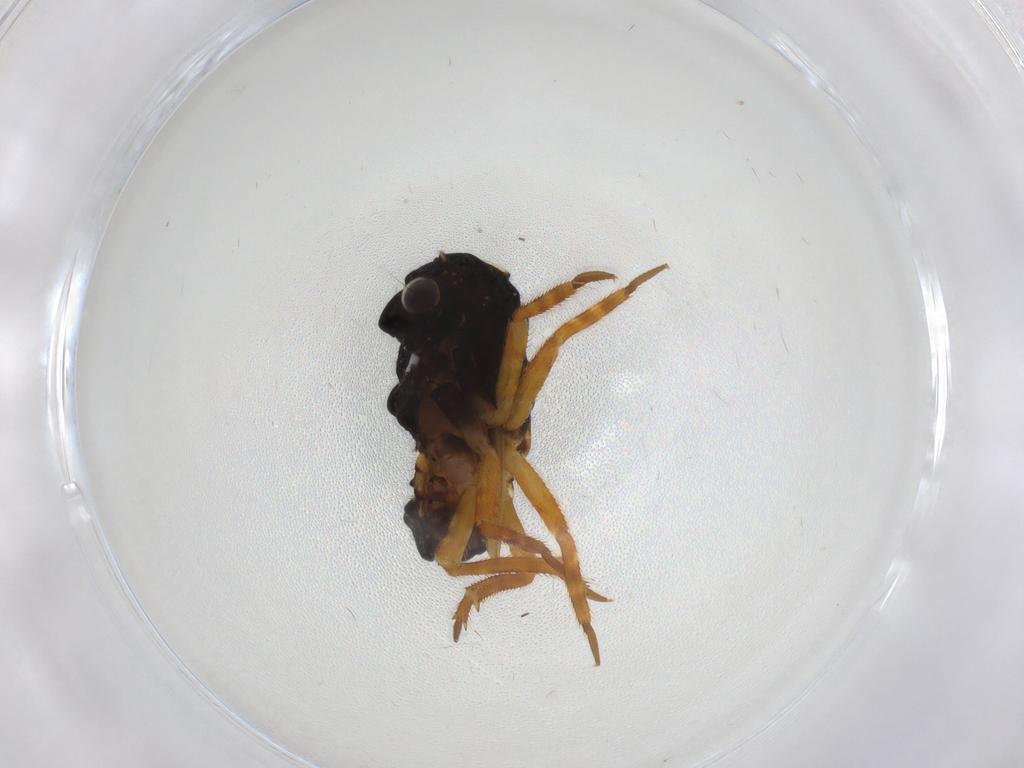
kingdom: Animalia
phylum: Arthropoda
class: Insecta
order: Hemiptera
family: Fulgoridae
